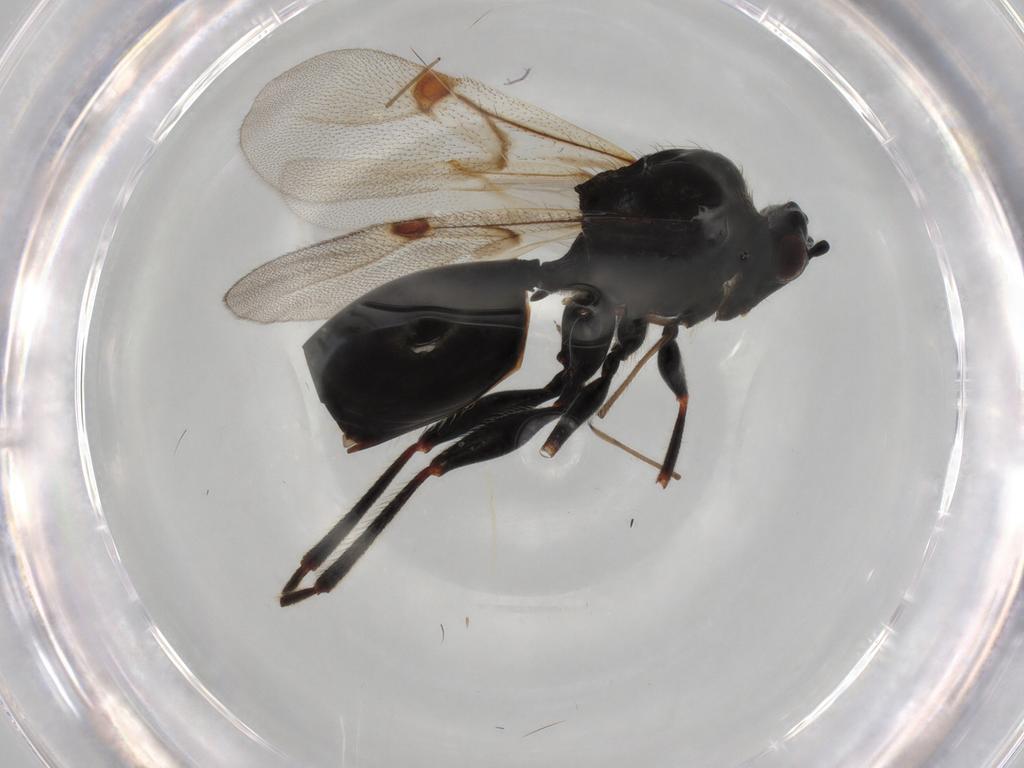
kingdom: Animalia
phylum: Arthropoda
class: Insecta
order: Hymenoptera
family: Figitidae
